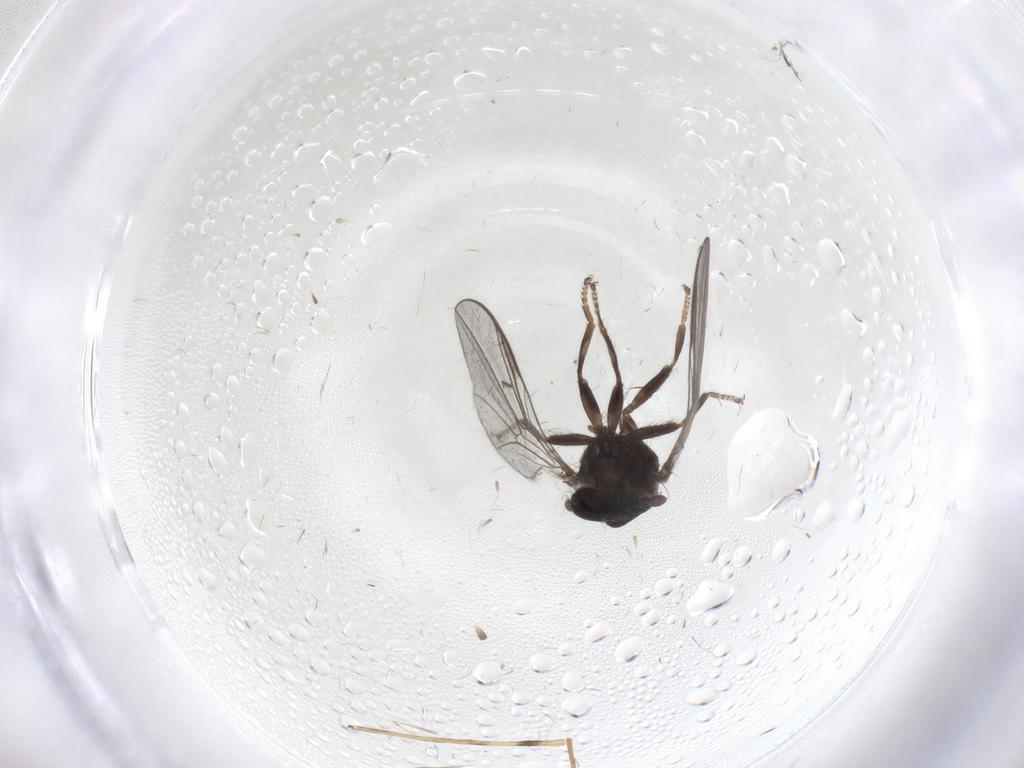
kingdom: Animalia
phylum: Arthropoda
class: Insecta
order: Diptera
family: Pipunculidae
